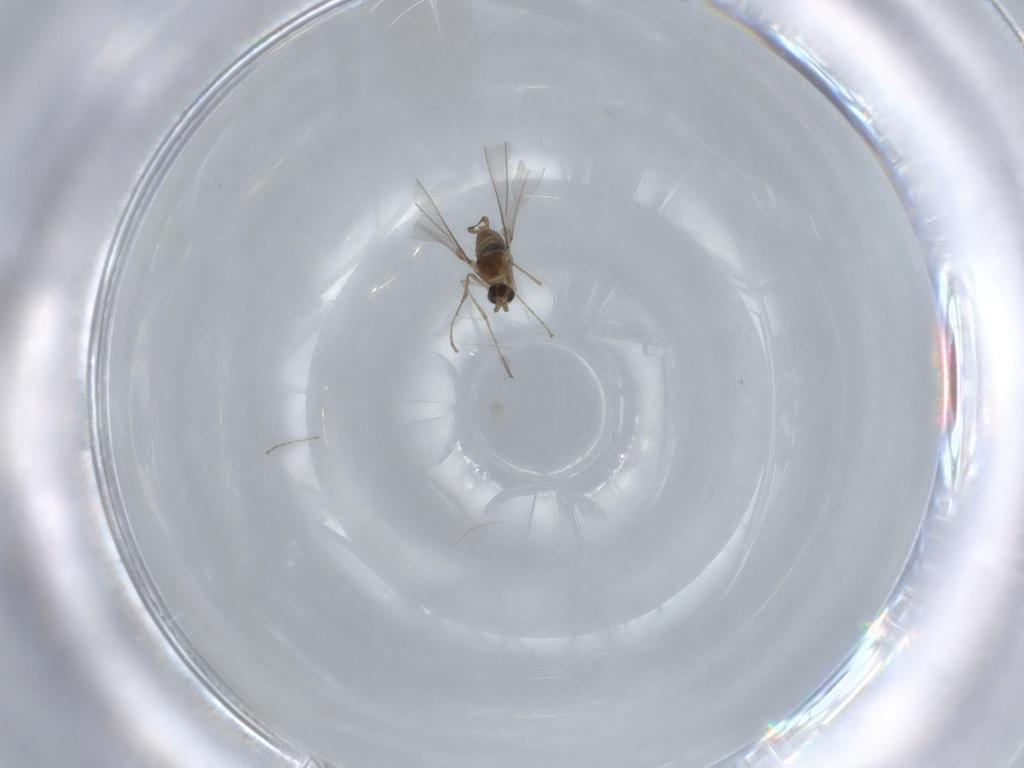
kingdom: Animalia
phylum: Arthropoda
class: Insecta
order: Diptera
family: Cecidomyiidae
